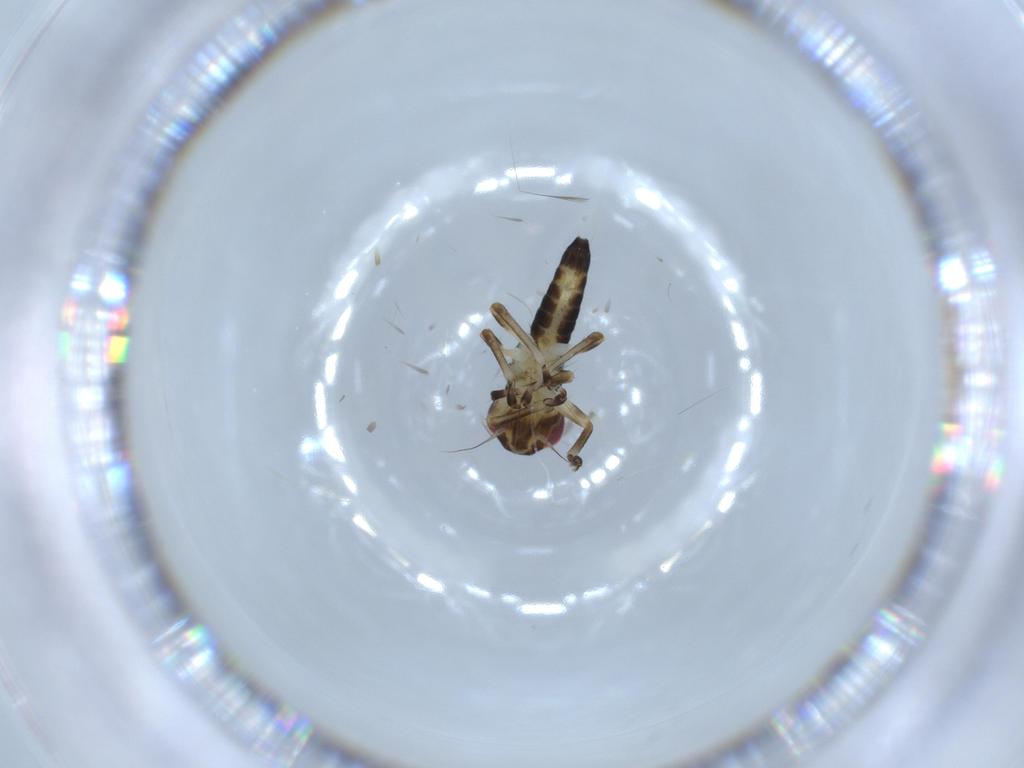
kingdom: Animalia
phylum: Arthropoda
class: Insecta
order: Hemiptera
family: Cicadellidae
